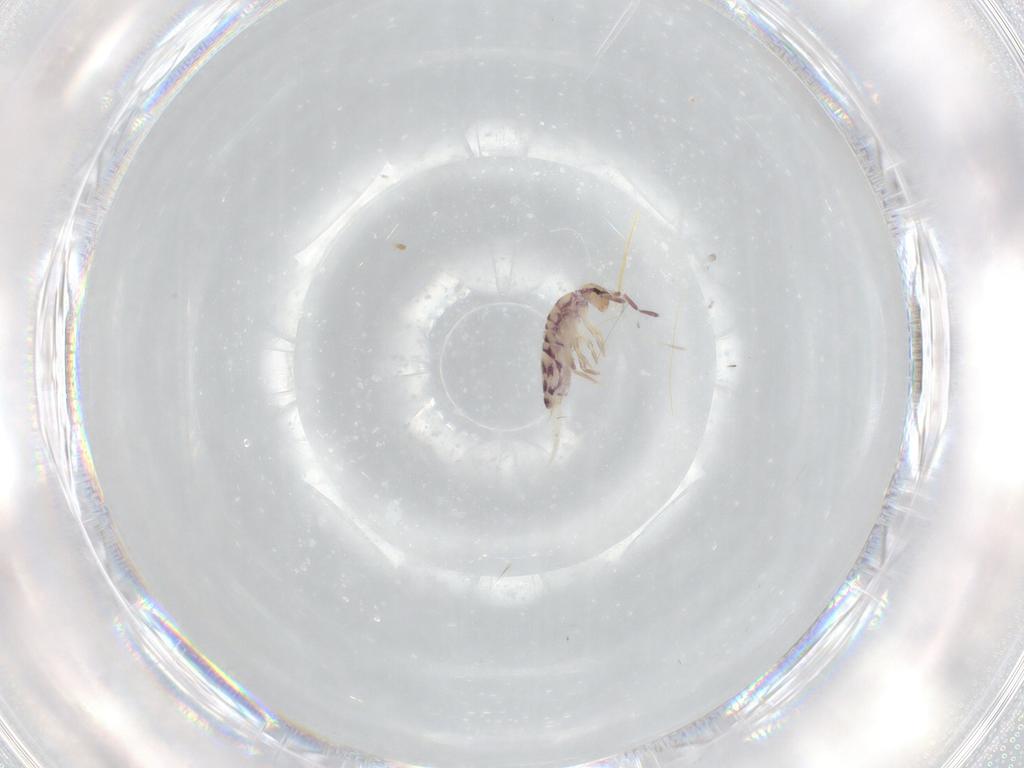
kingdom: Animalia
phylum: Arthropoda
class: Collembola
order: Entomobryomorpha
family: Entomobryidae
